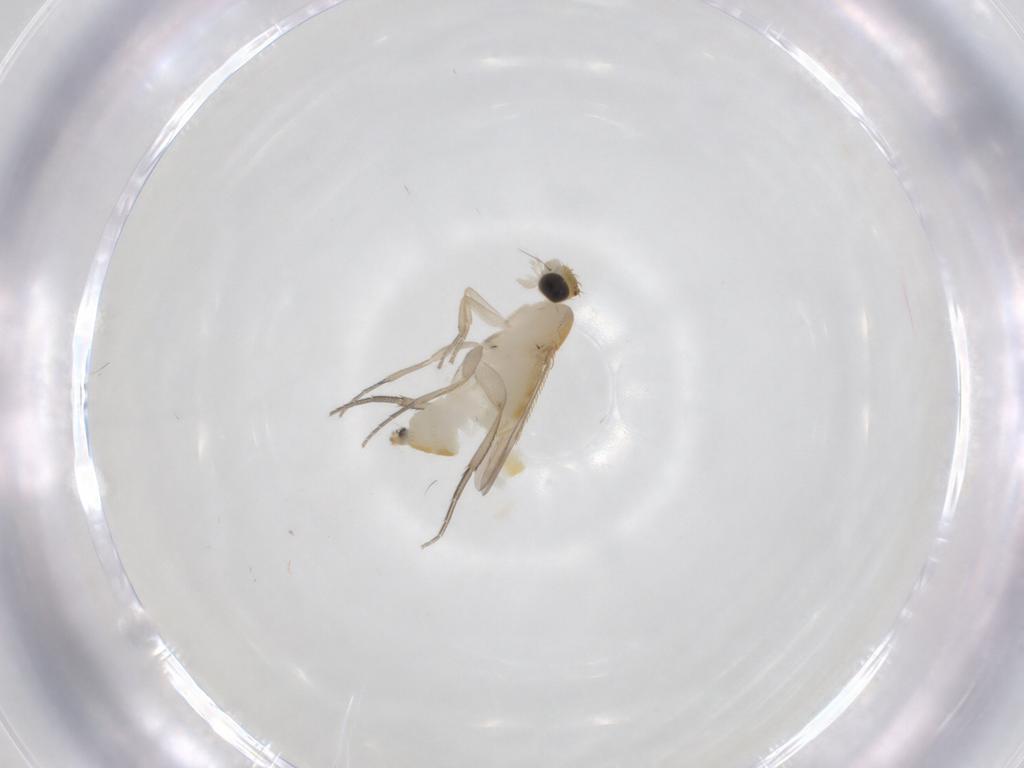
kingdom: Animalia
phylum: Arthropoda
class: Insecta
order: Diptera
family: Phoridae
